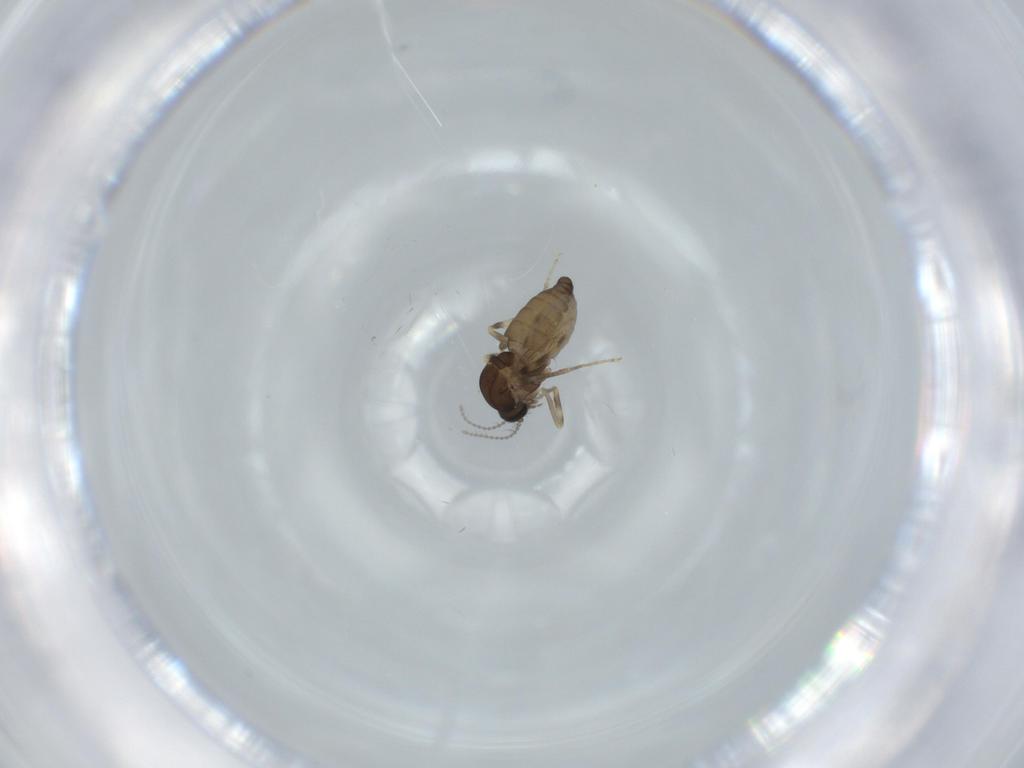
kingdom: Animalia
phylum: Arthropoda
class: Insecta
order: Diptera
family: Ceratopogonidae
